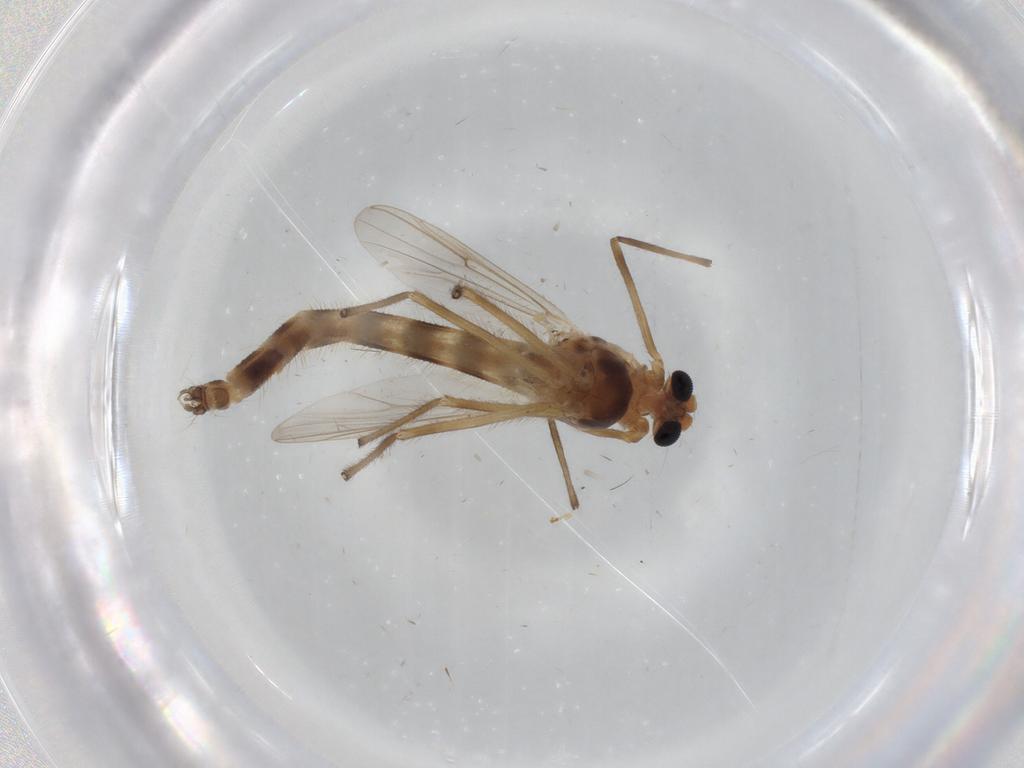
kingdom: Animalia
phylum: Arthropoda
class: Insecta
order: Diptera
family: Chironomidae
